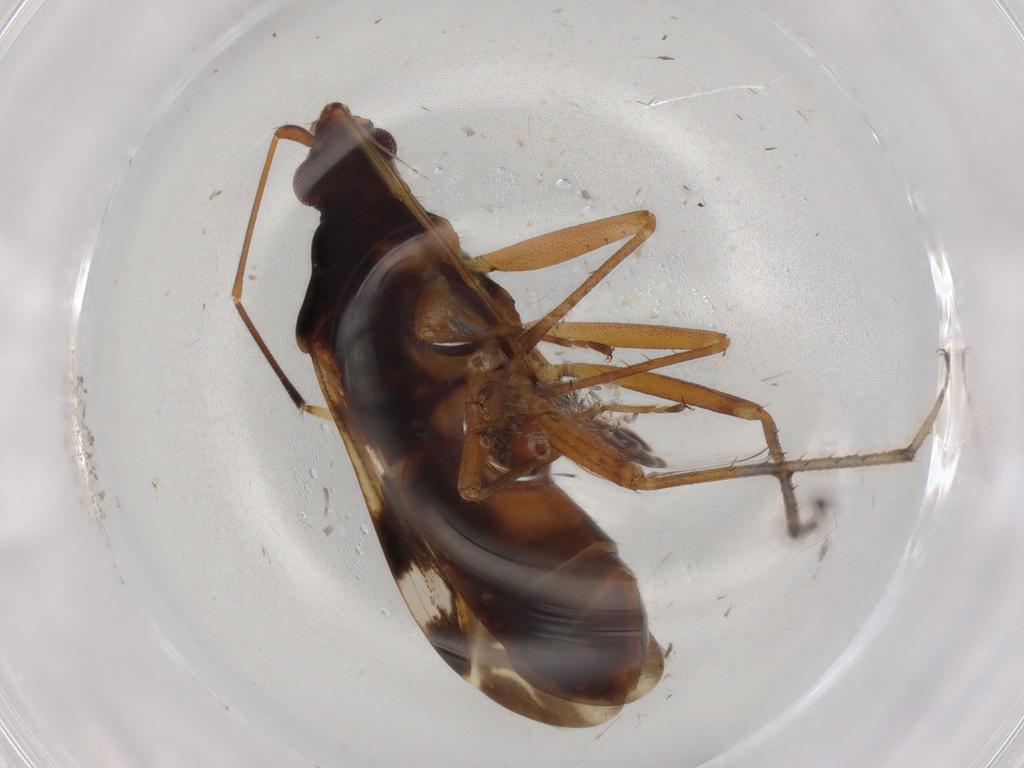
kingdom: Animalia
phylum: Arthropoda
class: Insecta
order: Hemiptera
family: Rhyparochromidae
